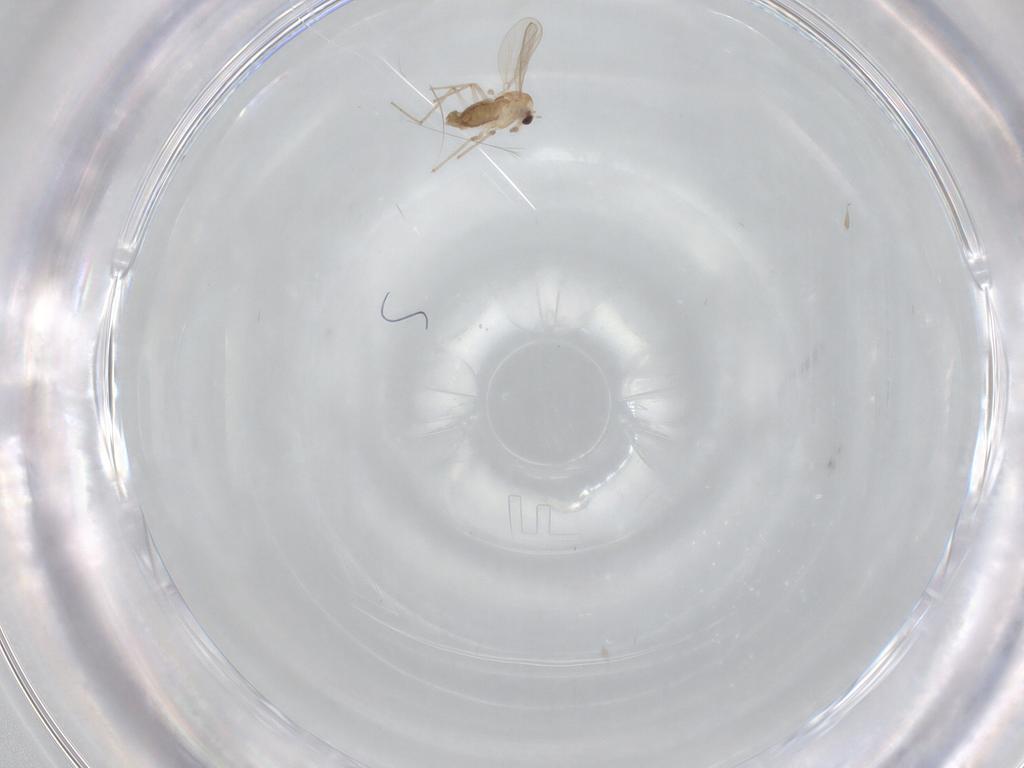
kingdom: Animalia
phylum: Arthropoda
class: Insecta
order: Diptera
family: Chironomidae
